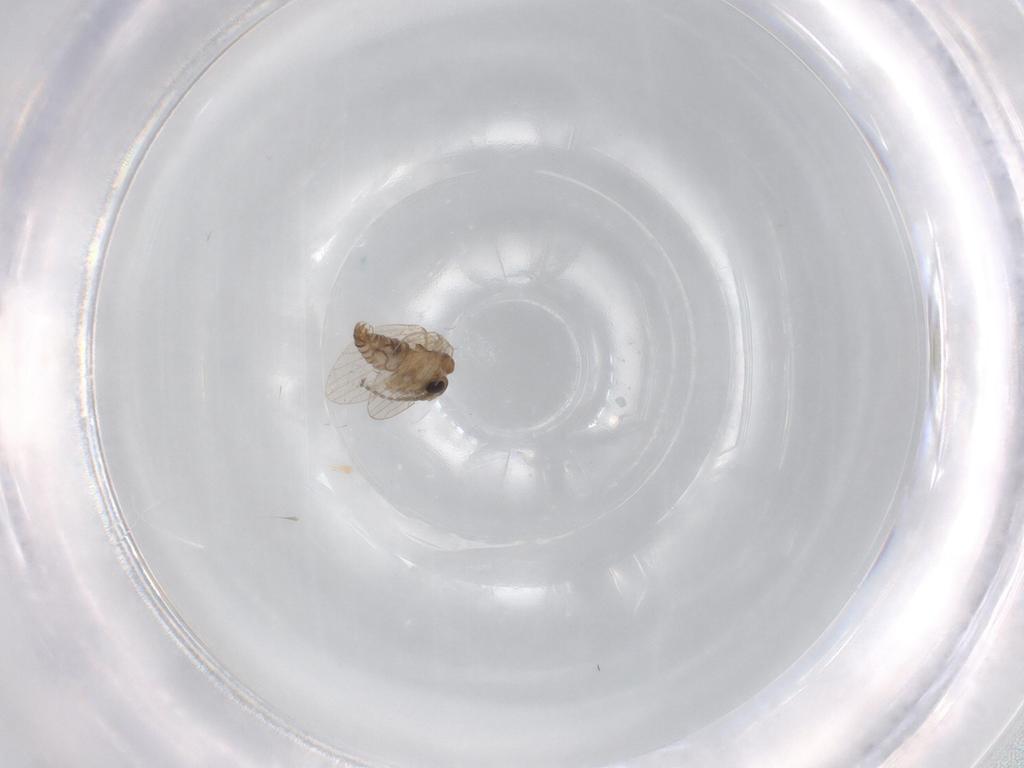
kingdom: Animalia
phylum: Arthropoda
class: Insecta
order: Diptera
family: Psychodidae
